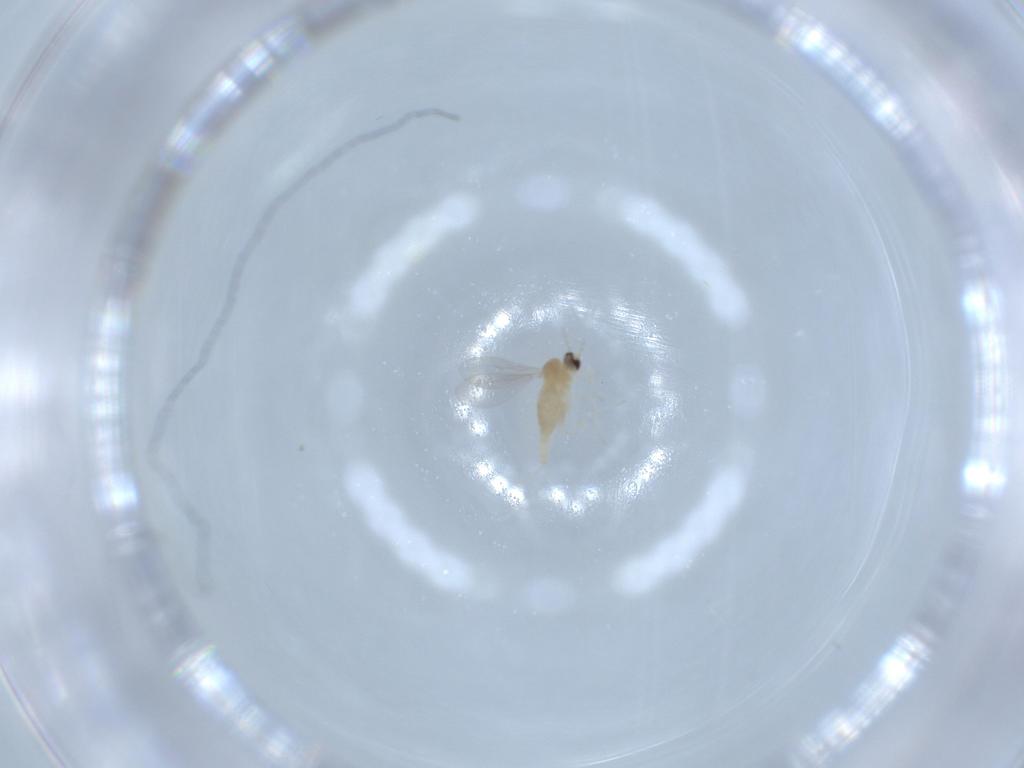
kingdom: Animalia
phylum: Arthropoda
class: Insecta
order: Diptera
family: Cecidomyiidae
